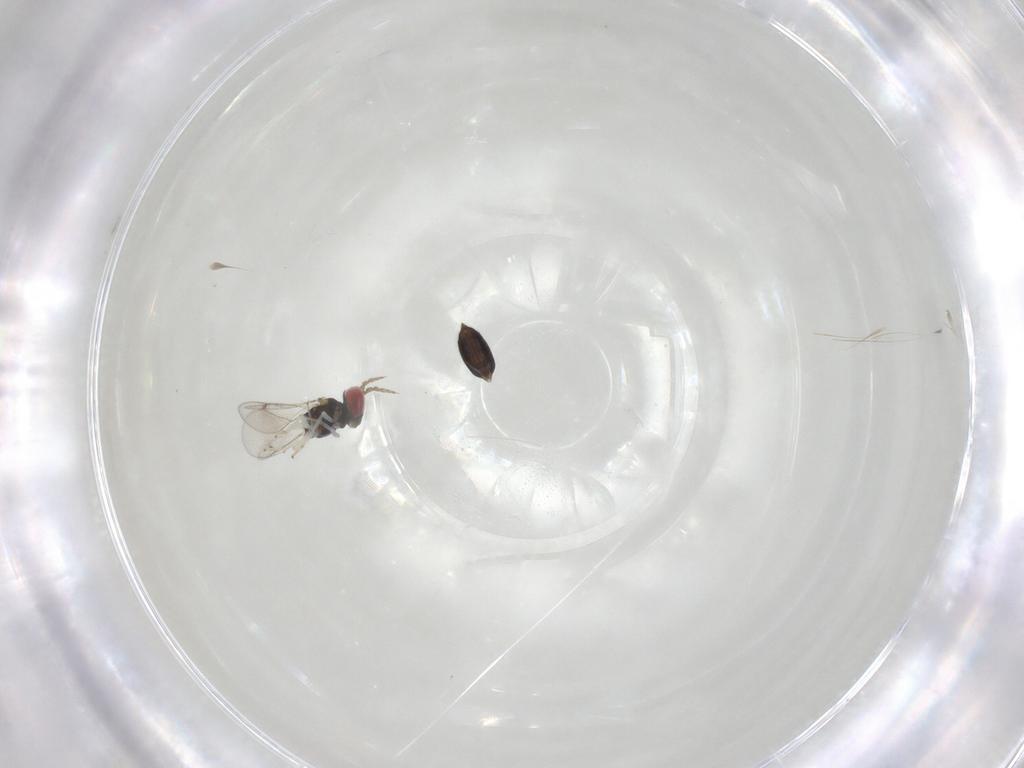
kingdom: Animalia
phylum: Arthropoda
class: Insecta
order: Hymenoptera
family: Eulophidae
